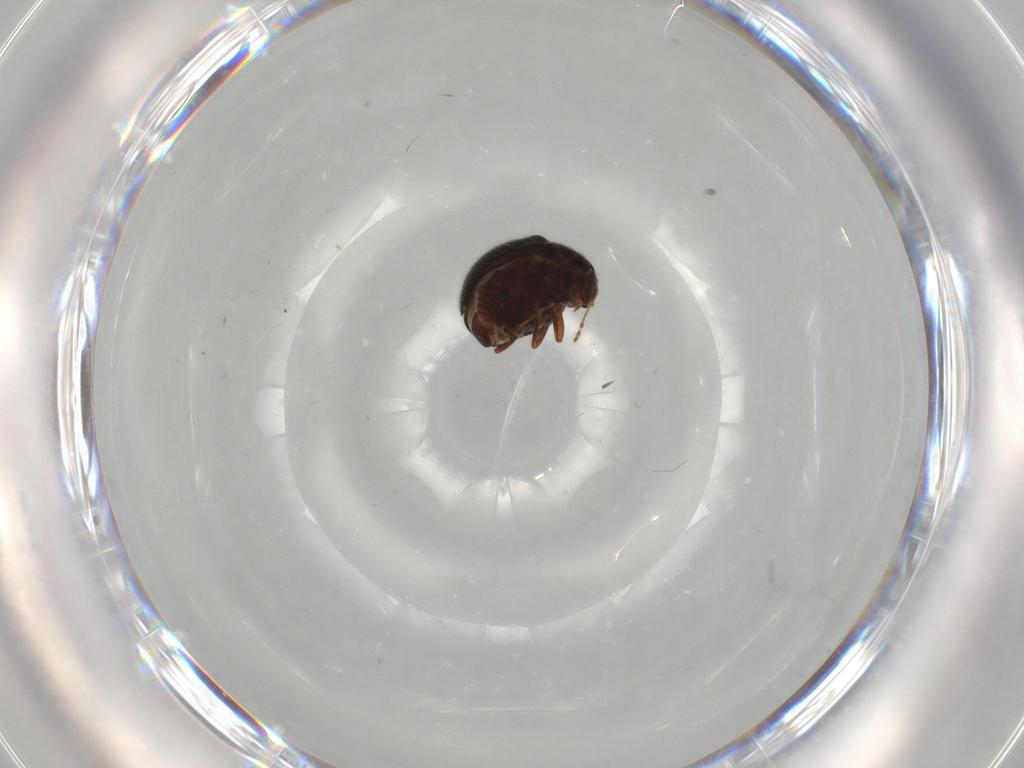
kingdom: Animalia
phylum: Arthropoda
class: Insecta
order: Coleoptera
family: Anamorphidae
